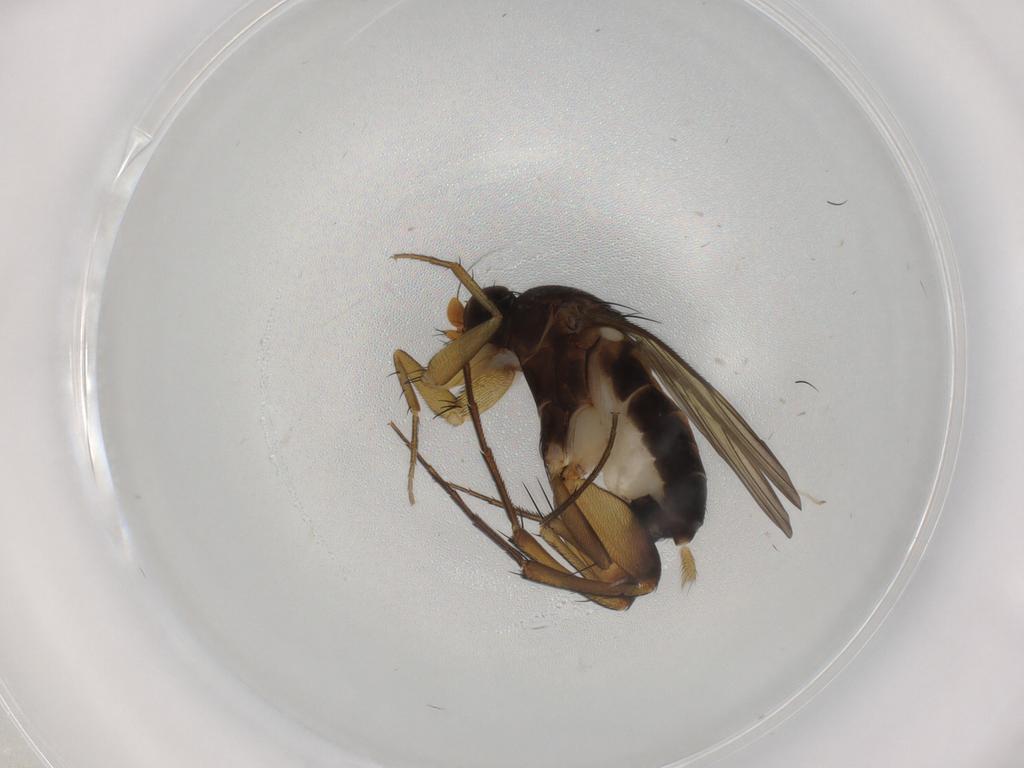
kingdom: Animalia
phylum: Arthropoda
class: Insecta
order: Diptera
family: Phoridae
